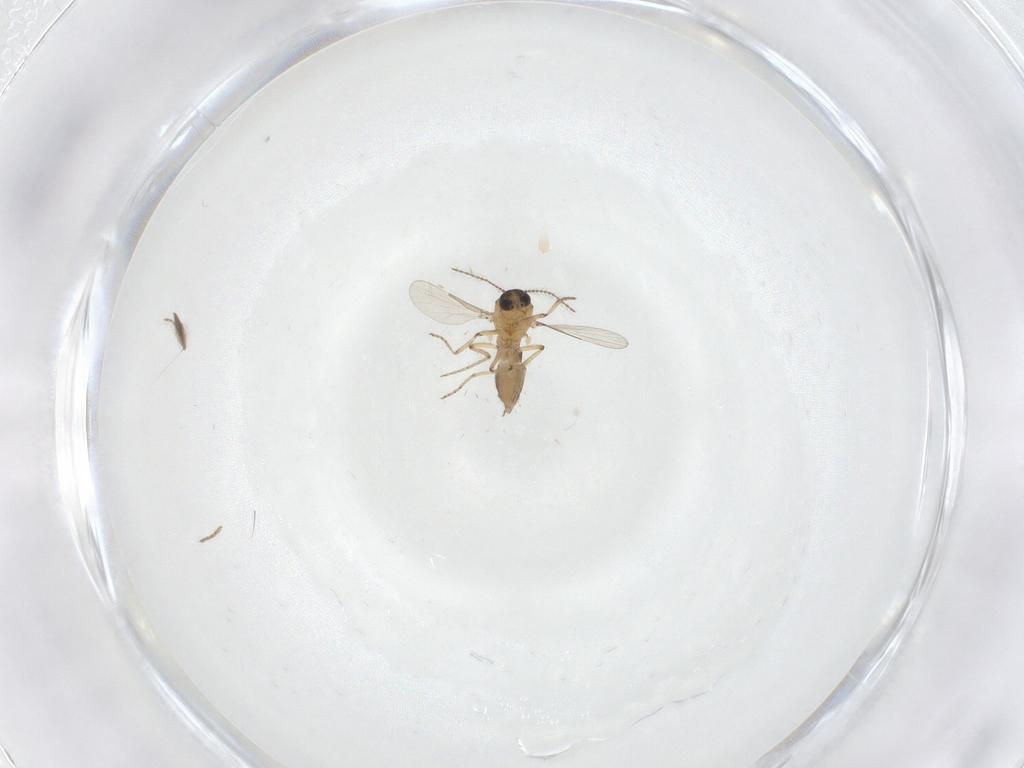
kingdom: Animalia
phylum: Arthropoda
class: Insecta
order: Diptera
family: Ceratopogonidae
